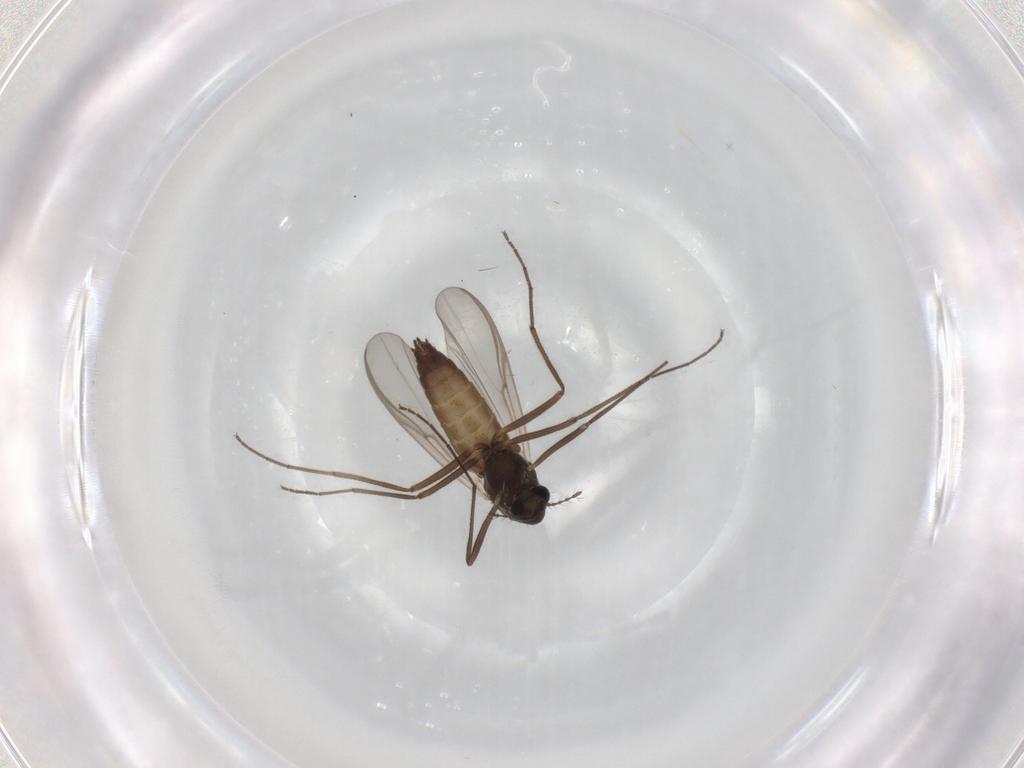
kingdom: Animalia
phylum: Arthropoda
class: Insecta
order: Diptera
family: Chironomidae
